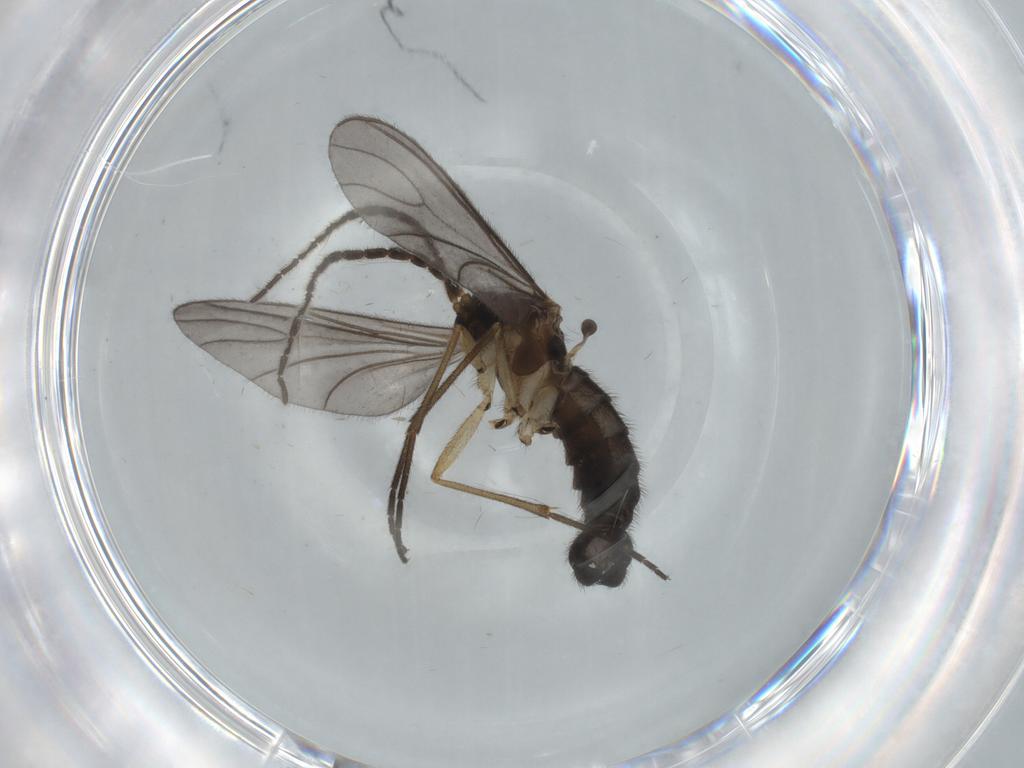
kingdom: Animalia
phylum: Arthropoda
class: Insecta
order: Diptera
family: Sciaridae
